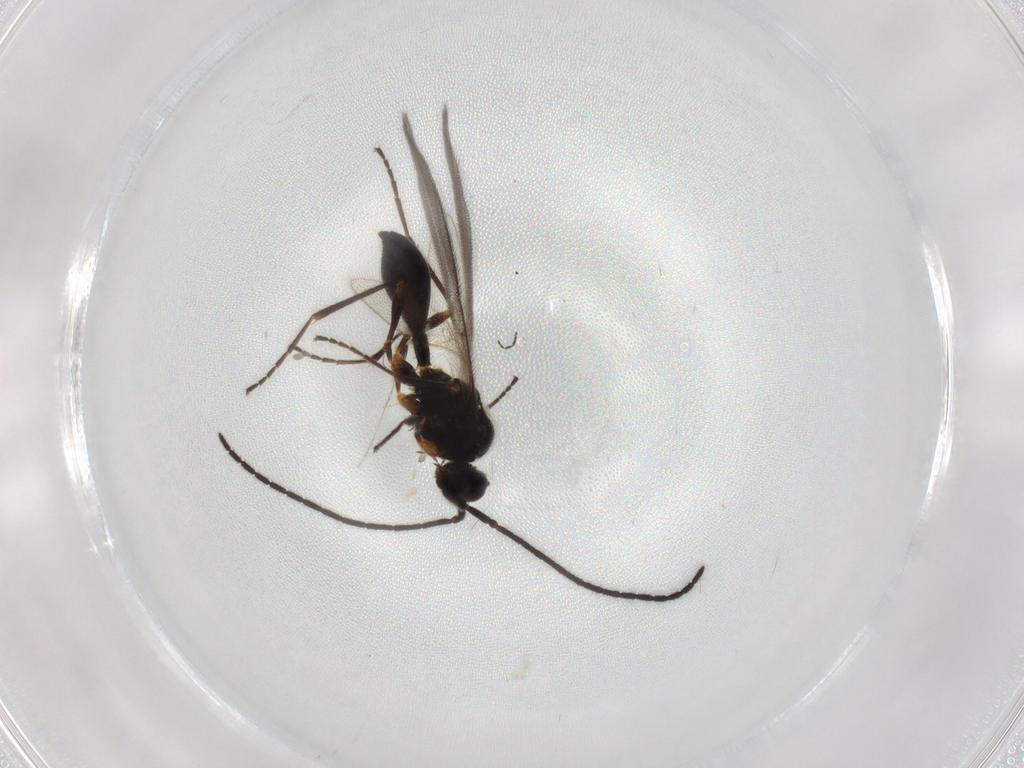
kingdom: Animalia
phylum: Arthropoda
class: Insecta
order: Hymenoptera
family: Diapriidae
